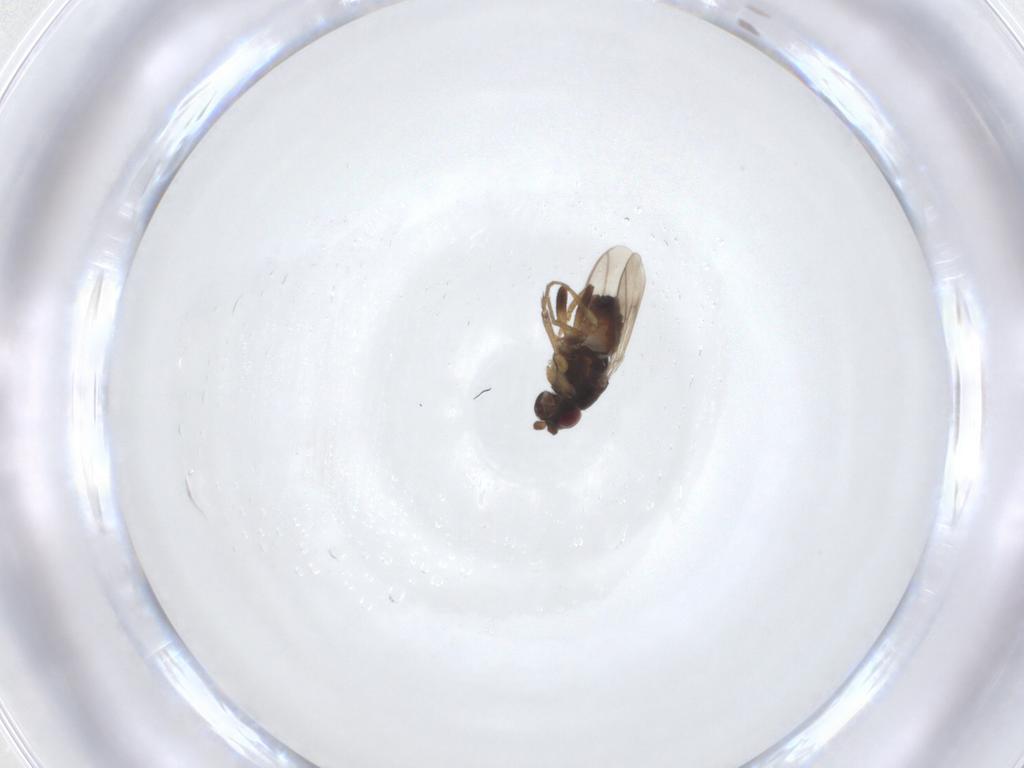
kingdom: Animalia
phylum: Arthropoda
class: Insecta
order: Diptera
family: Sphaeroceridae
